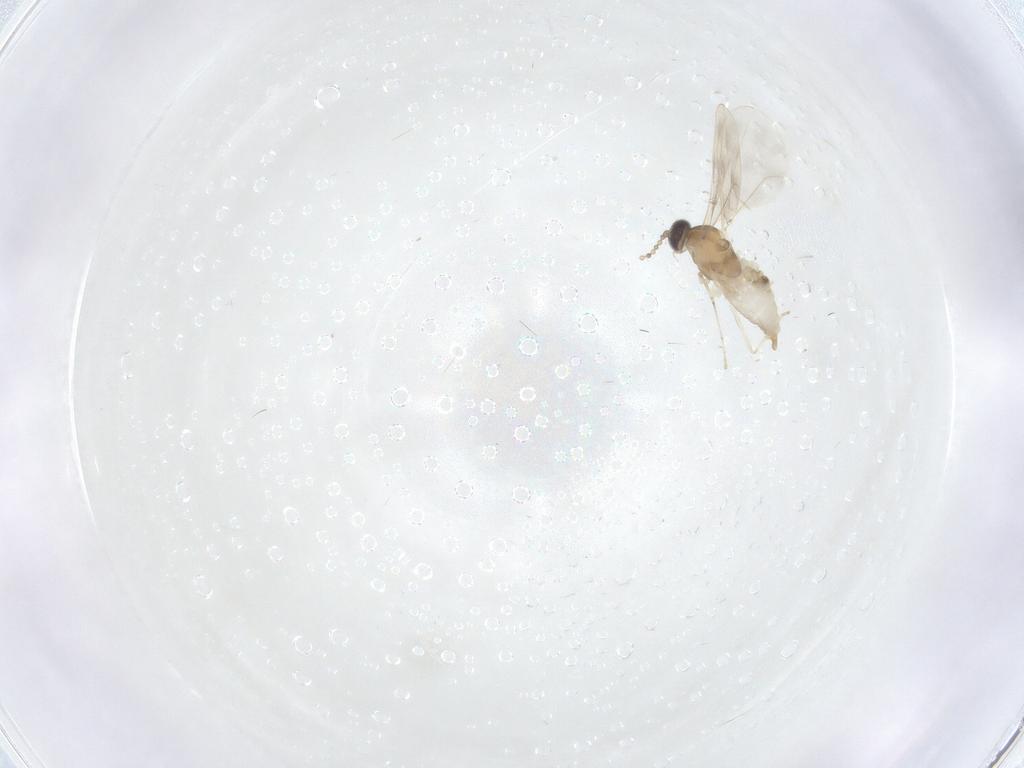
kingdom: Animalia
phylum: Arthropoda
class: Insecta
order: Diptera
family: Cecidomyiidae
